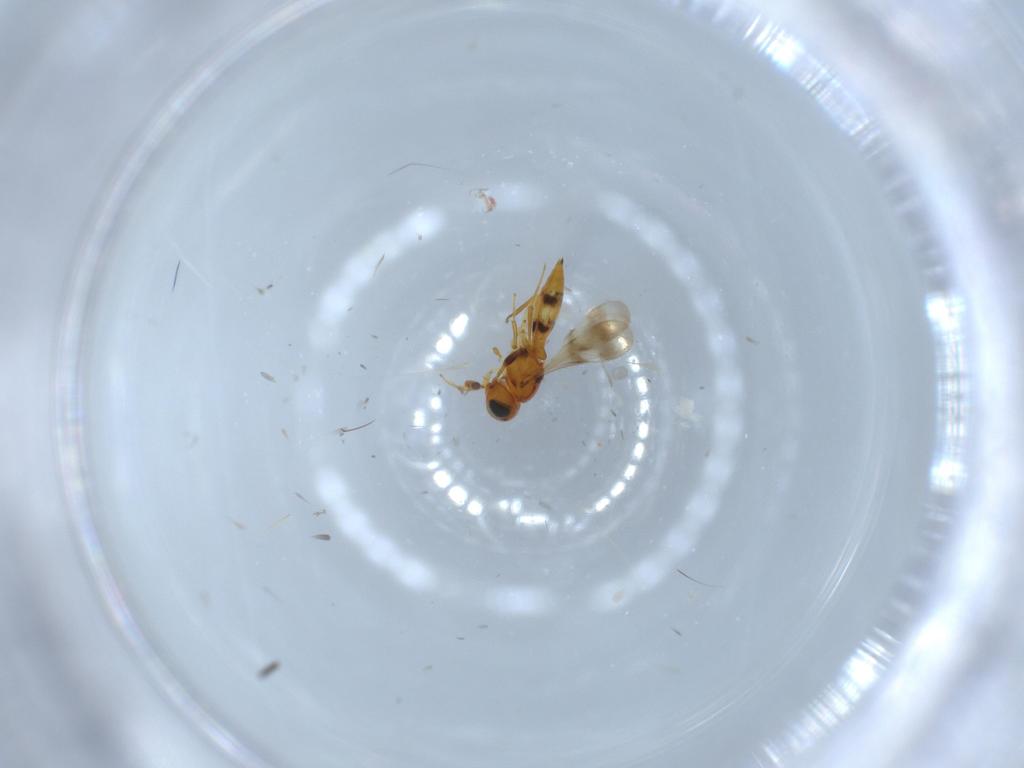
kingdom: Animalia
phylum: Arthropoda
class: Insecta
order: Hymenoptera
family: Scelionidae
